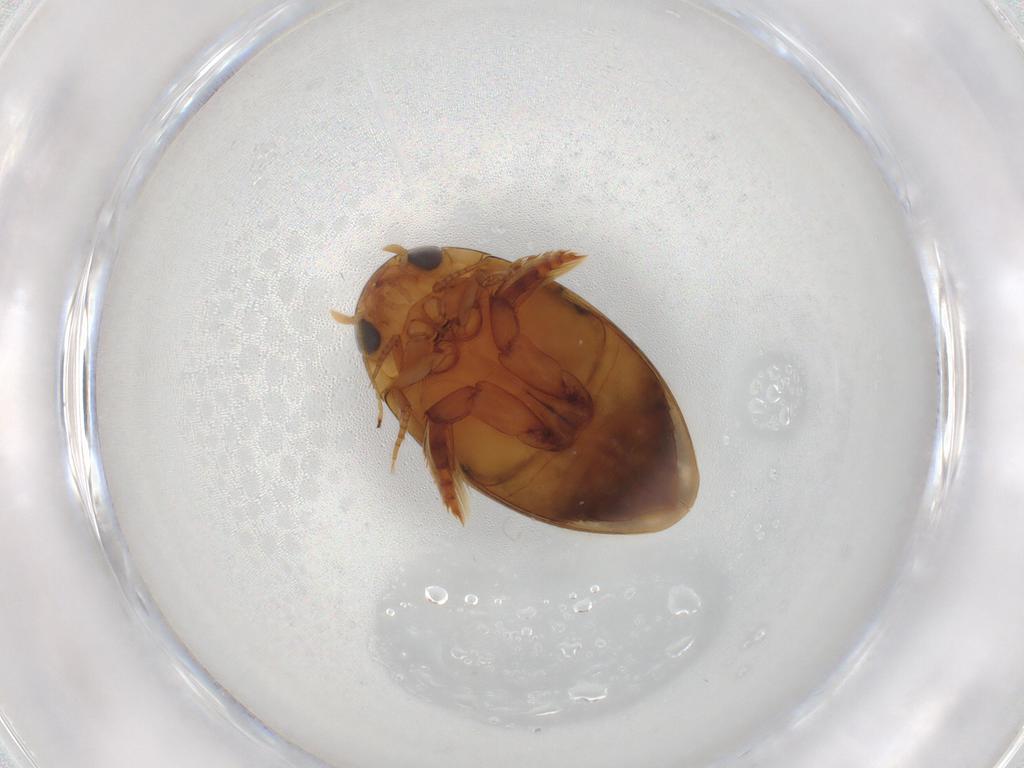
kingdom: Animalia
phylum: Arthropoda
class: Insecta
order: Coleoptera
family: Dytiscidae
